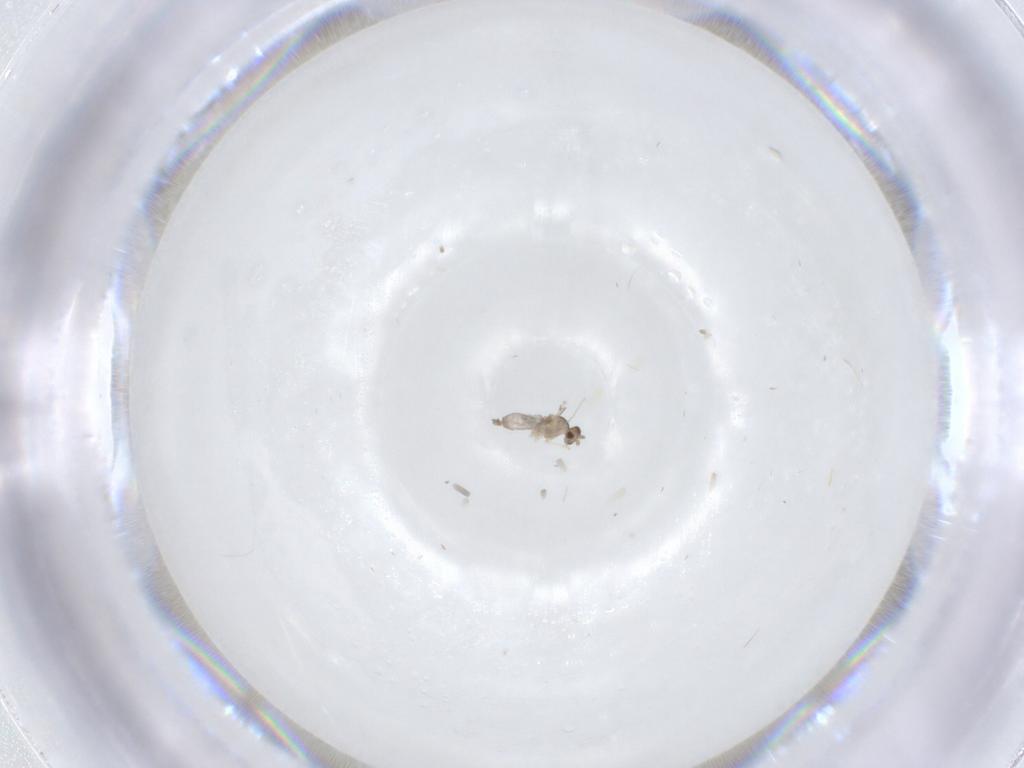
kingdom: Animalia
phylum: Arthropoda
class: Insecta
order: Diptera
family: Cecidomyiidae
